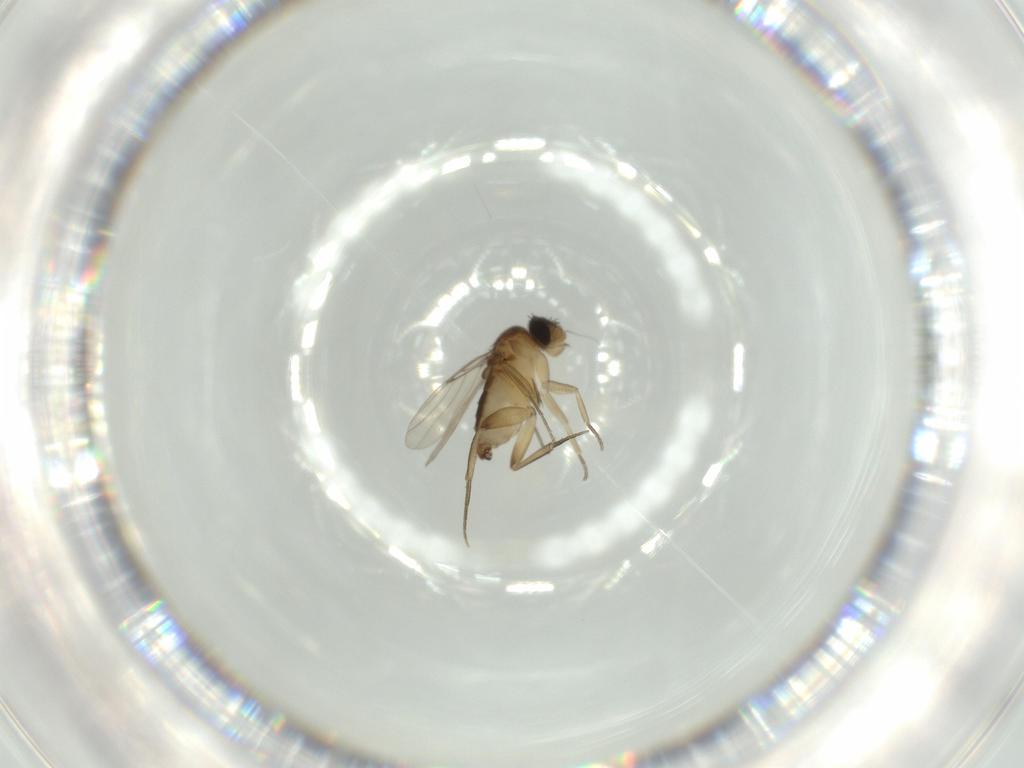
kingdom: Animalia
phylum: Arthropoda
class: Insecta
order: Diptera
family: Phoridae
